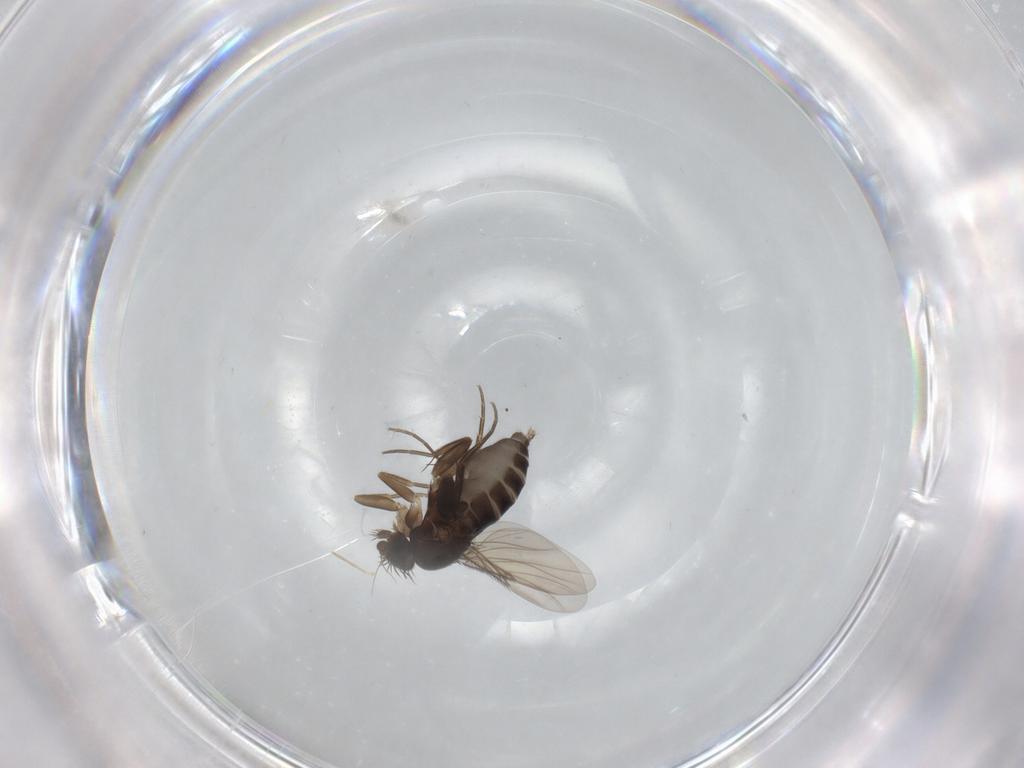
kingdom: Animalia
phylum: Arthropoda
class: Insecta
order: Diptera
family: Phoridae
